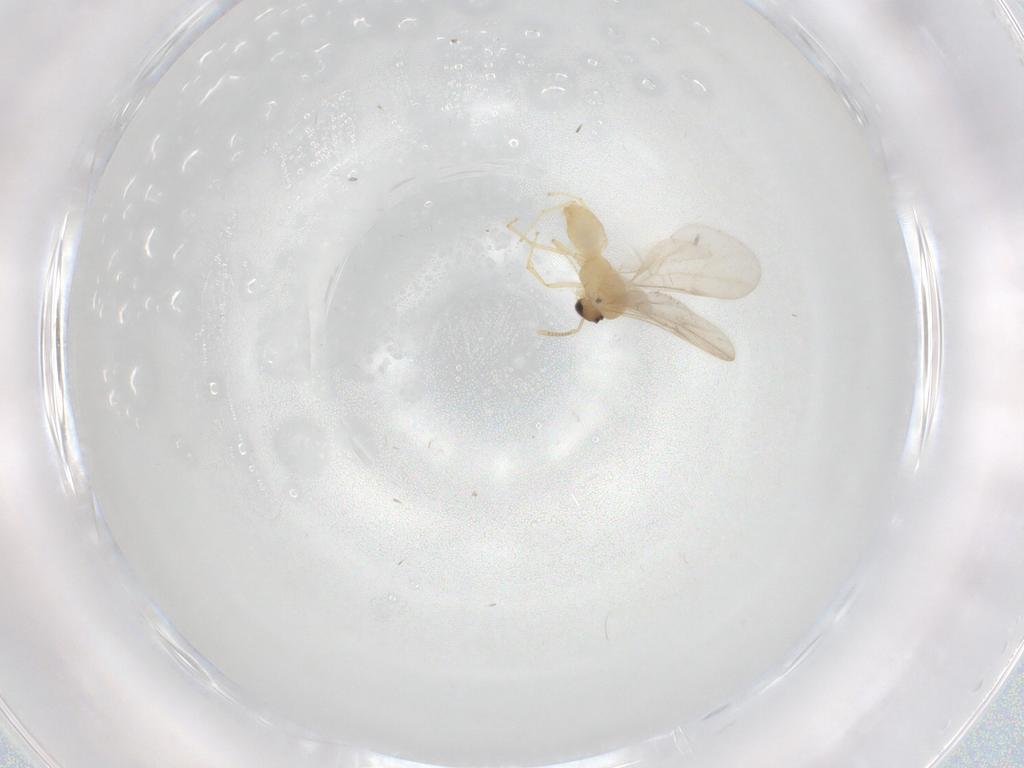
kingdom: Animalia
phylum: Arthropoda
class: Insecta
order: Hymenoptera
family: Formicidae
